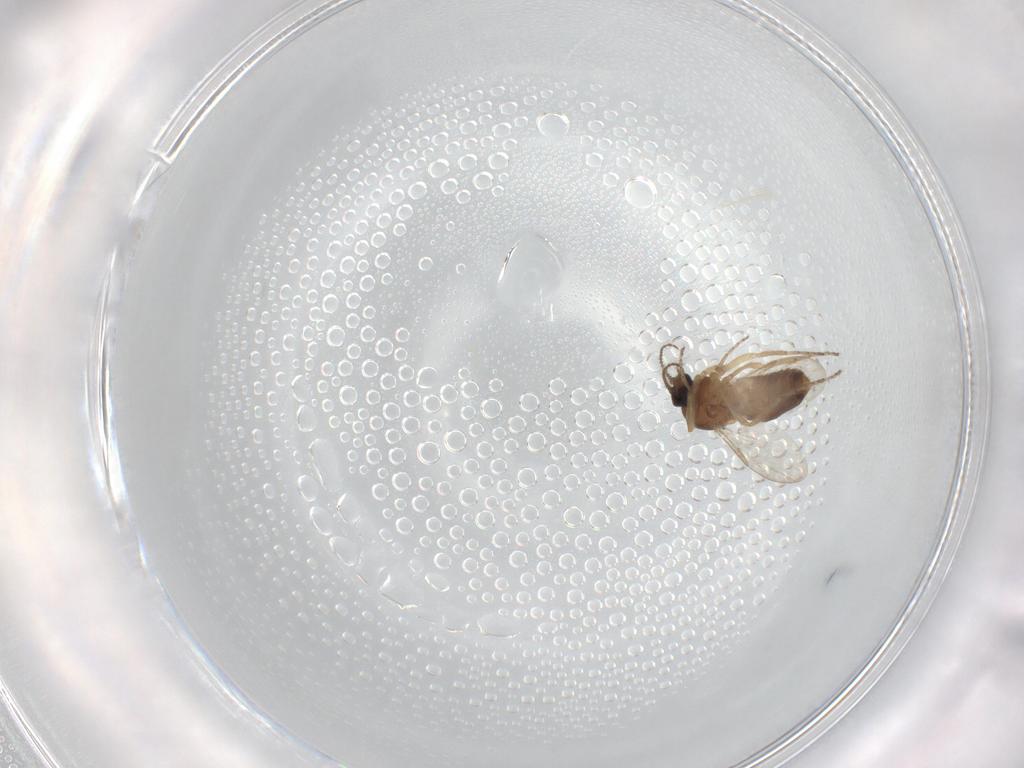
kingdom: Animalia
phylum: Arthropoda
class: Insecta
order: Diptera
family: Ceratopogonidae
